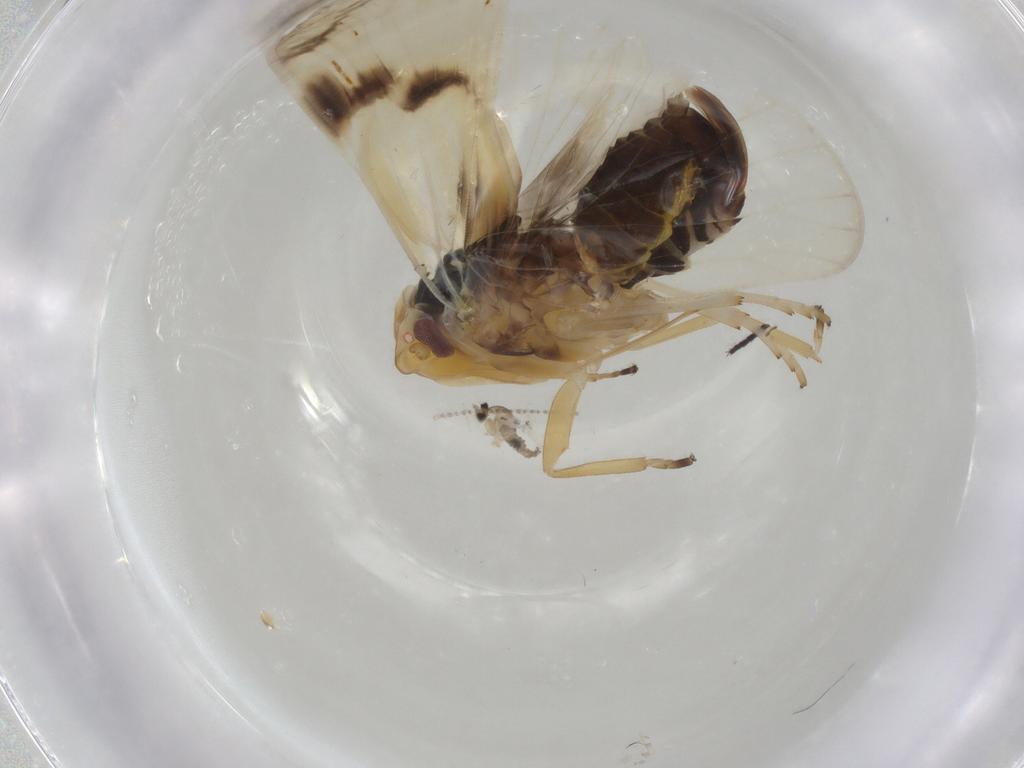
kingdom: Animalia
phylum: Arthropoda
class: Insecta
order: Hemiptera
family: Cixiidae
